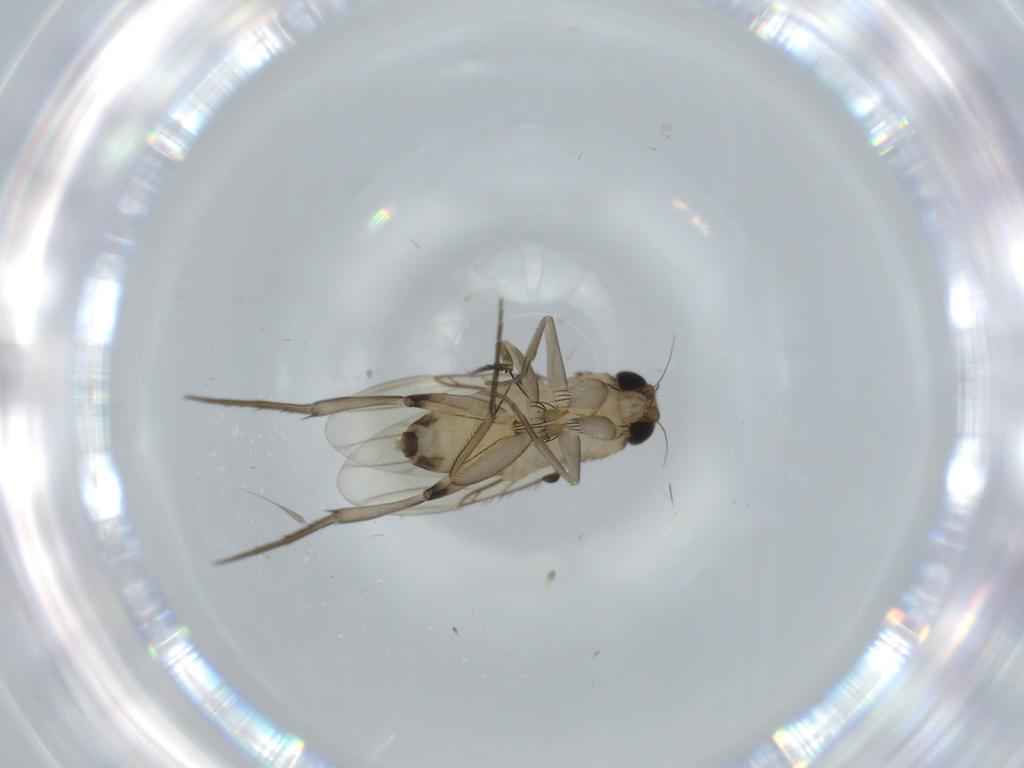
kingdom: Animalia
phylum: Arthropoda
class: Insecta
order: Diptera
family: Phoridae
